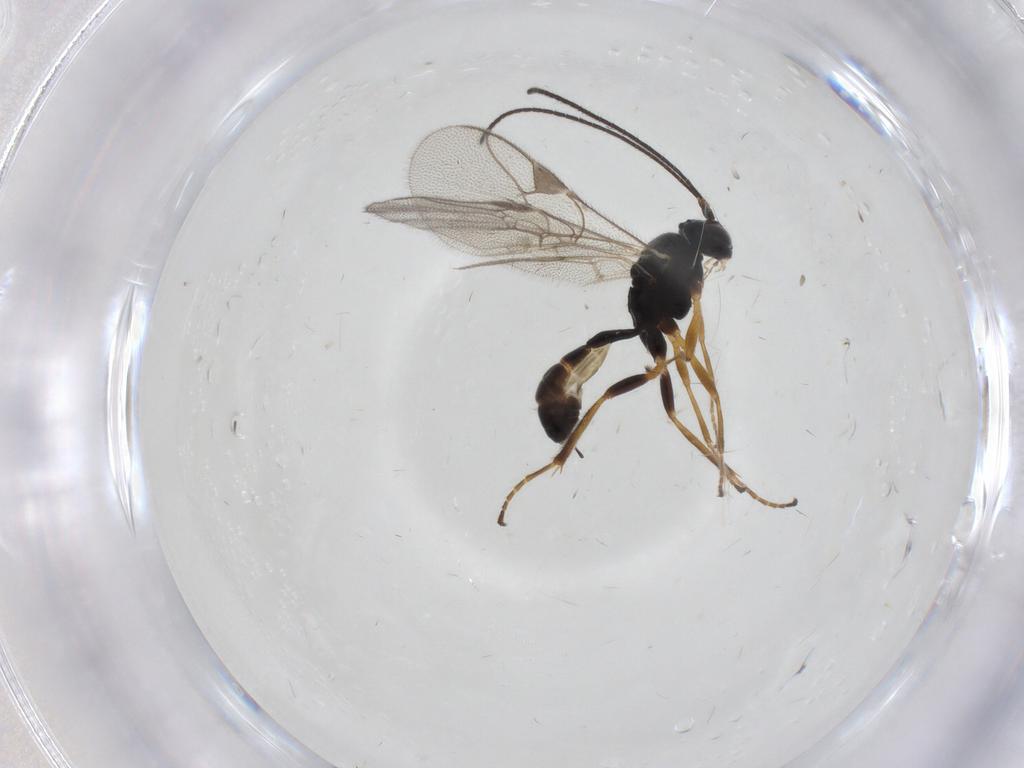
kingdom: Animalia
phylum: Arthropoda
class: Insecta
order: Hymenoptera
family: Ichneumonidae
